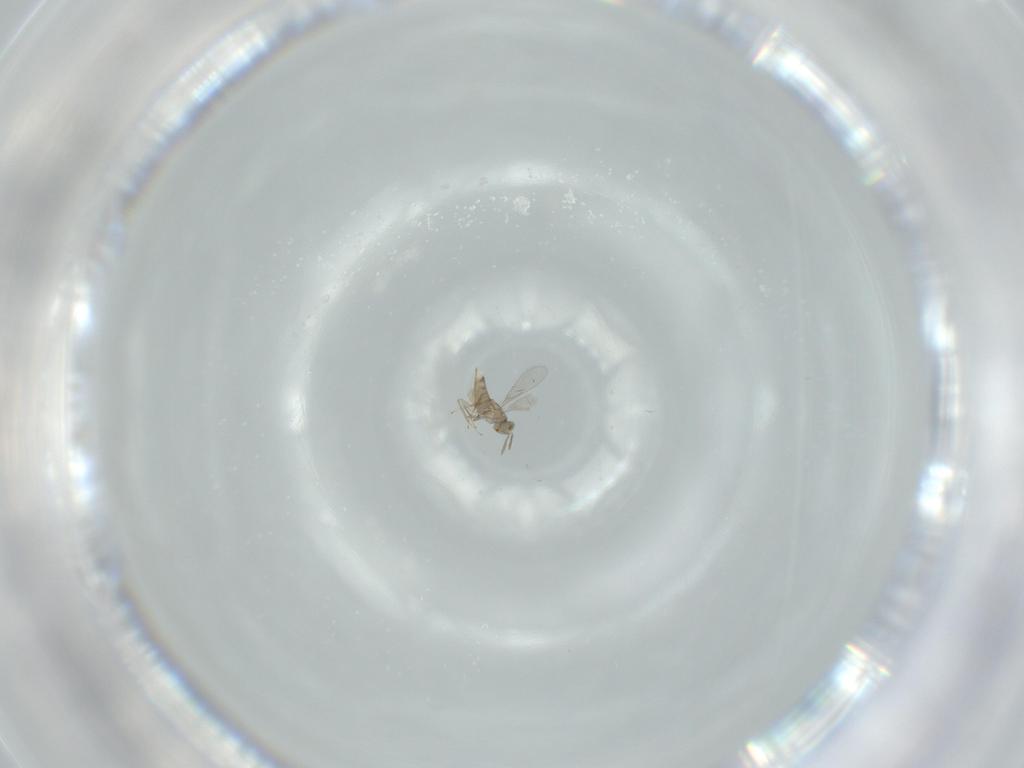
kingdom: Animalia
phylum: Arthropoda
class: Insecta
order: Hymenoptera
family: Aphelinidae
